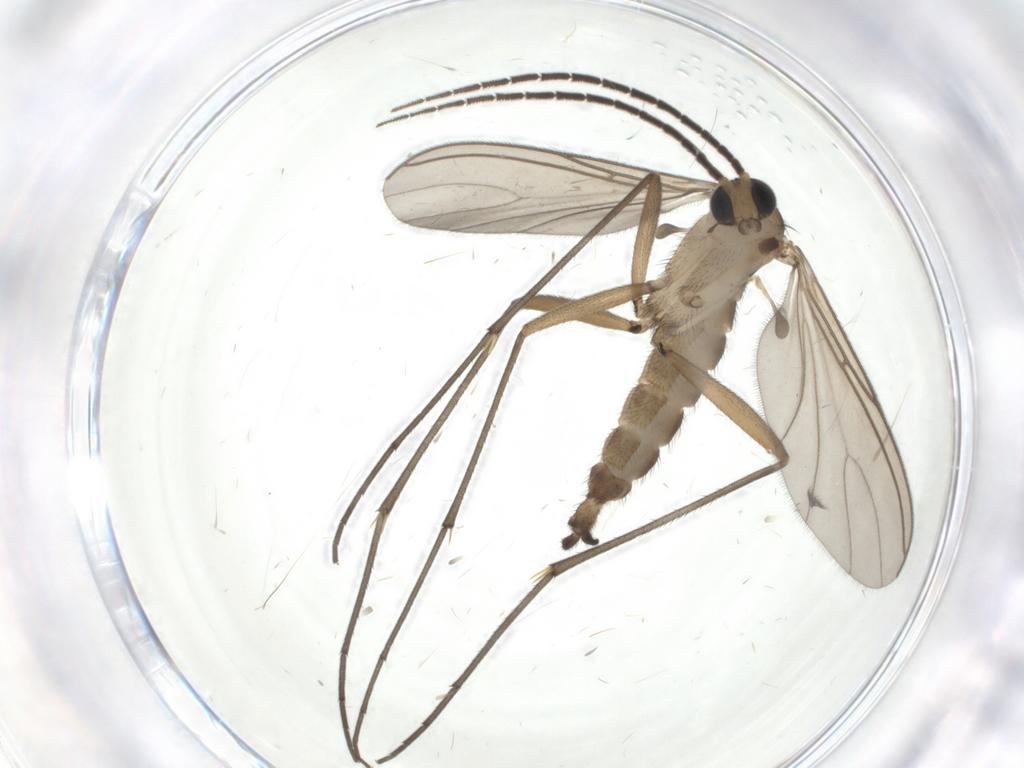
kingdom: Animalia
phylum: Arthropoda
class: Insecta
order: Diptera
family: Sciaridae
